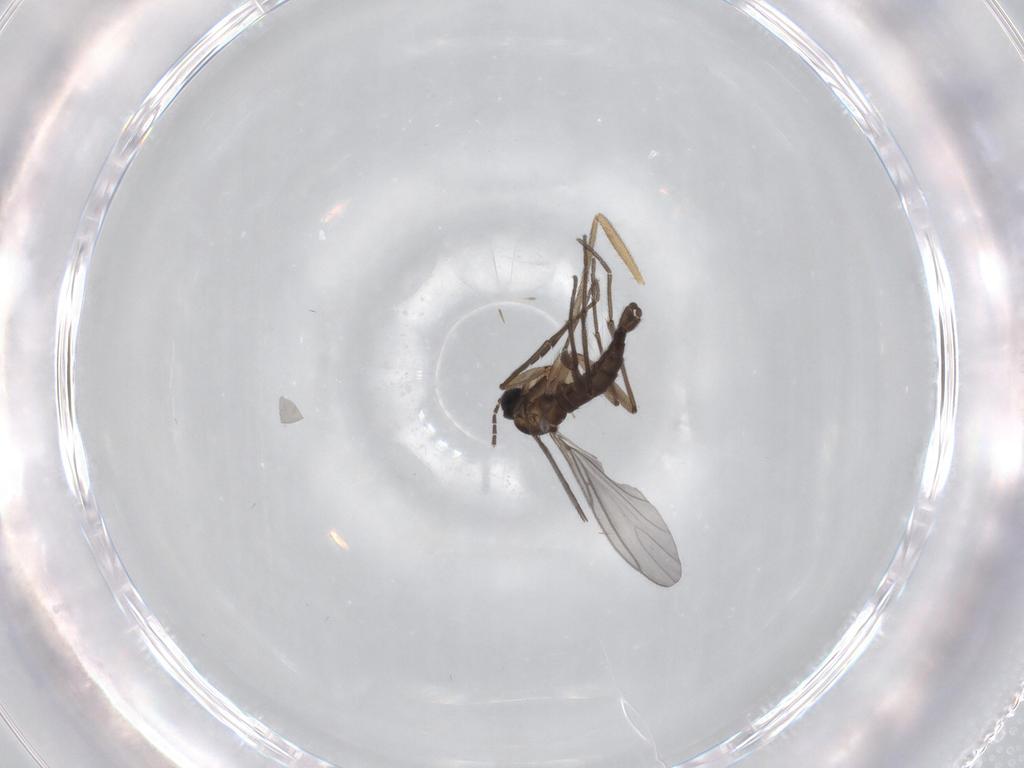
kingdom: Animalia
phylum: Arthropoda
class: Insecta
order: Diptera
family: Sciaridae
